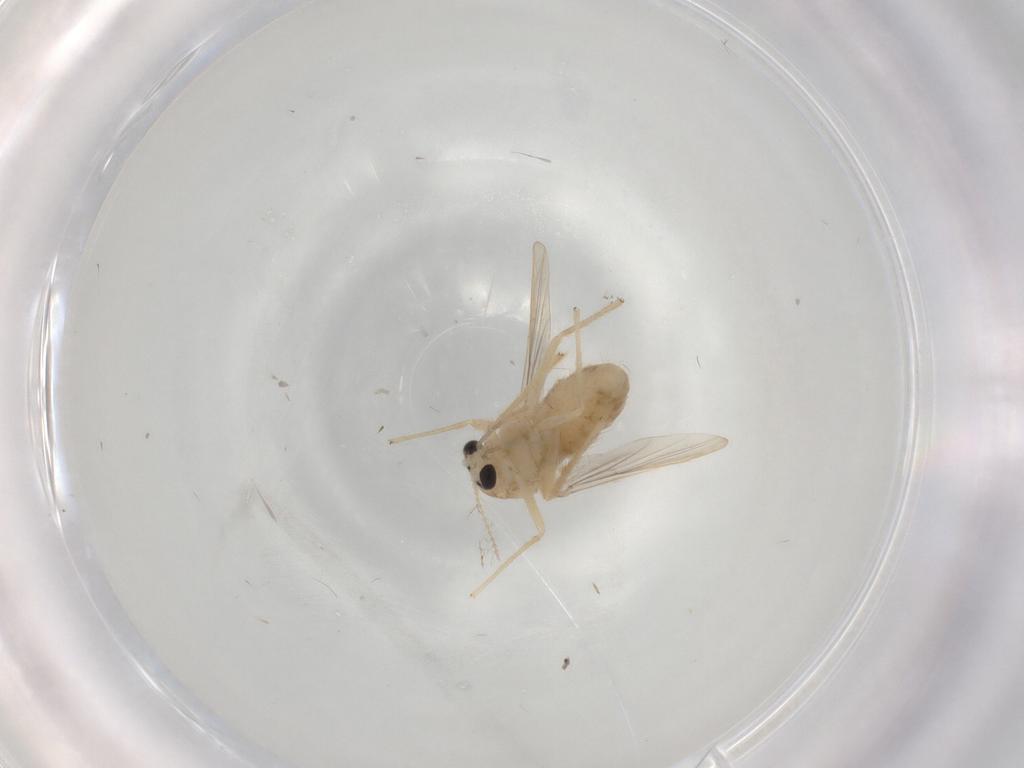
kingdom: Animalia
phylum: Arthropoda
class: Insecta
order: Diptera
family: Chironomidae
